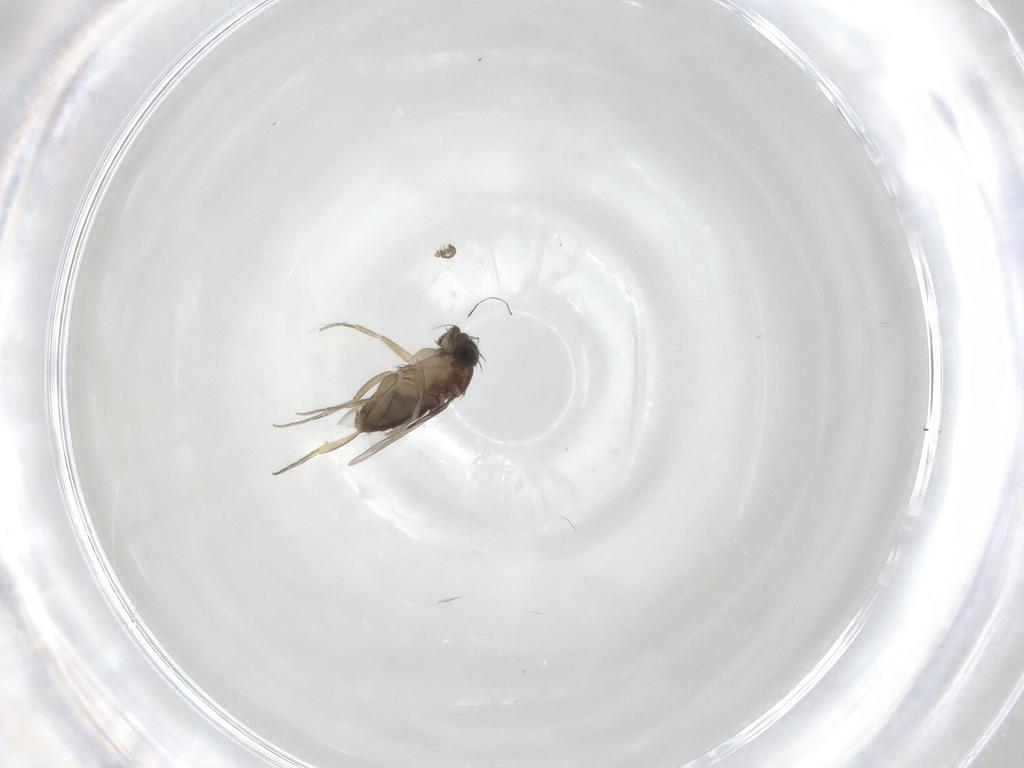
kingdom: Animalia
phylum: Arthropoda
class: Insecta
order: Diptera
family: Phoridae
